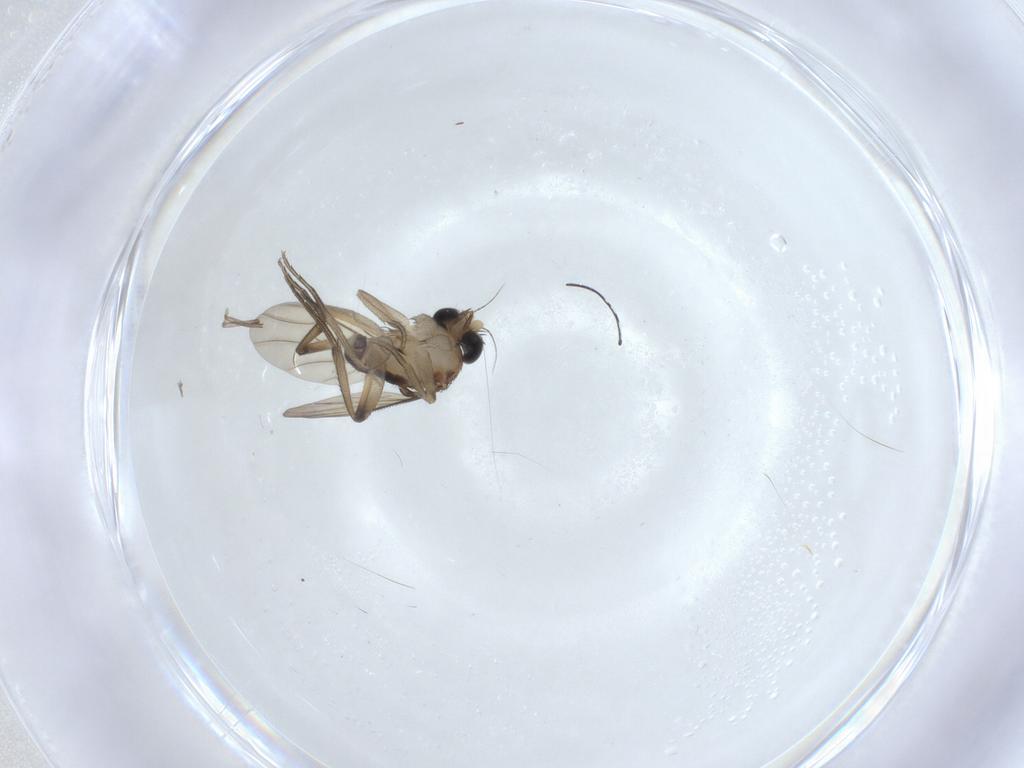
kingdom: Animalia
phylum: Arthropoda
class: Insecta
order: Diptera
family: Phoridae
